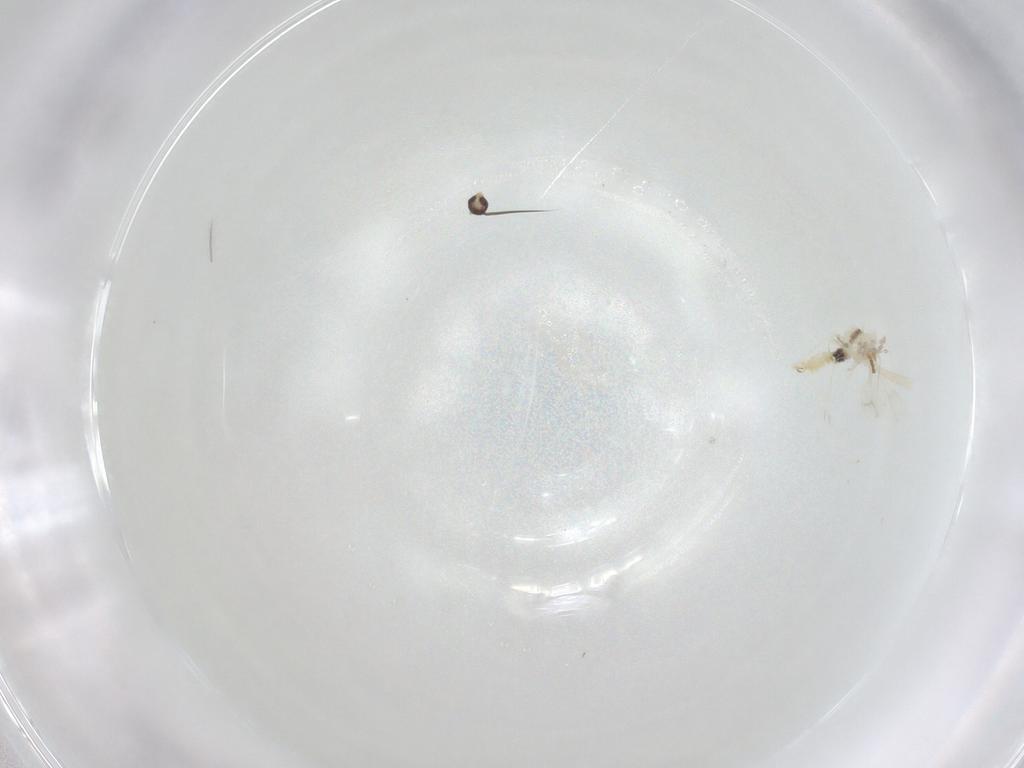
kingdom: Animalia
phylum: Arthropoda
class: Insecta
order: Diptera
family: Cecidomyiidae
